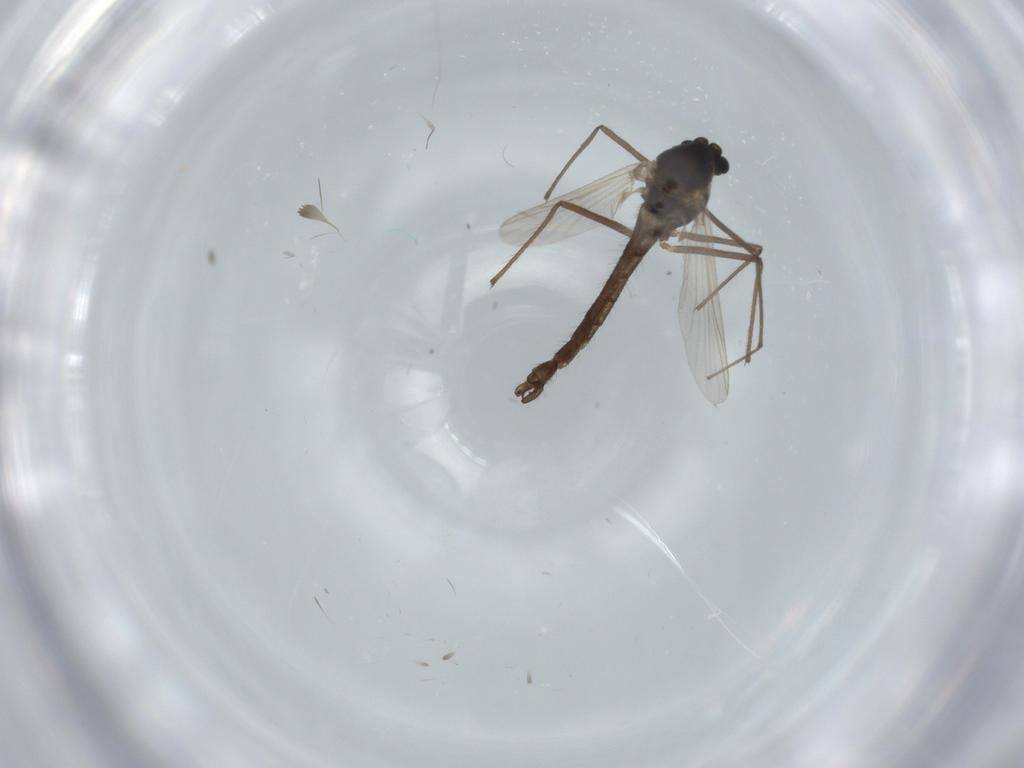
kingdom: Animalia
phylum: Arthropoda
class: Insecta
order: Diptera
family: Chironomidae
